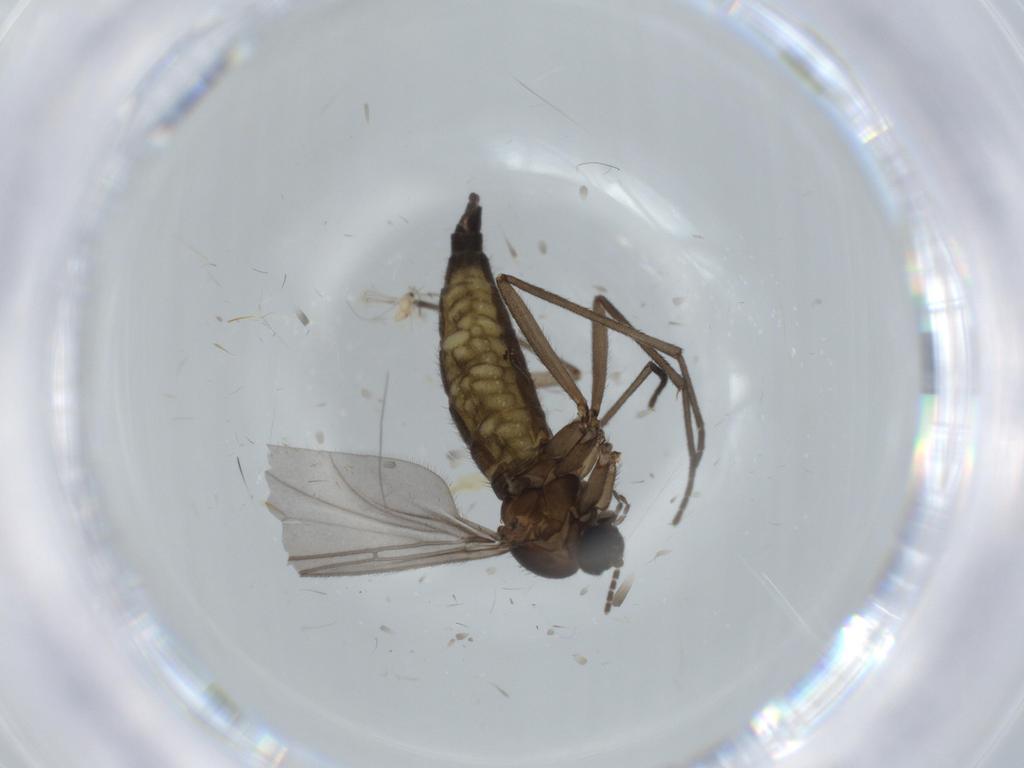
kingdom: Animalia
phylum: Arthropoda
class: Insecta
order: Diptera
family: Sciaridae
